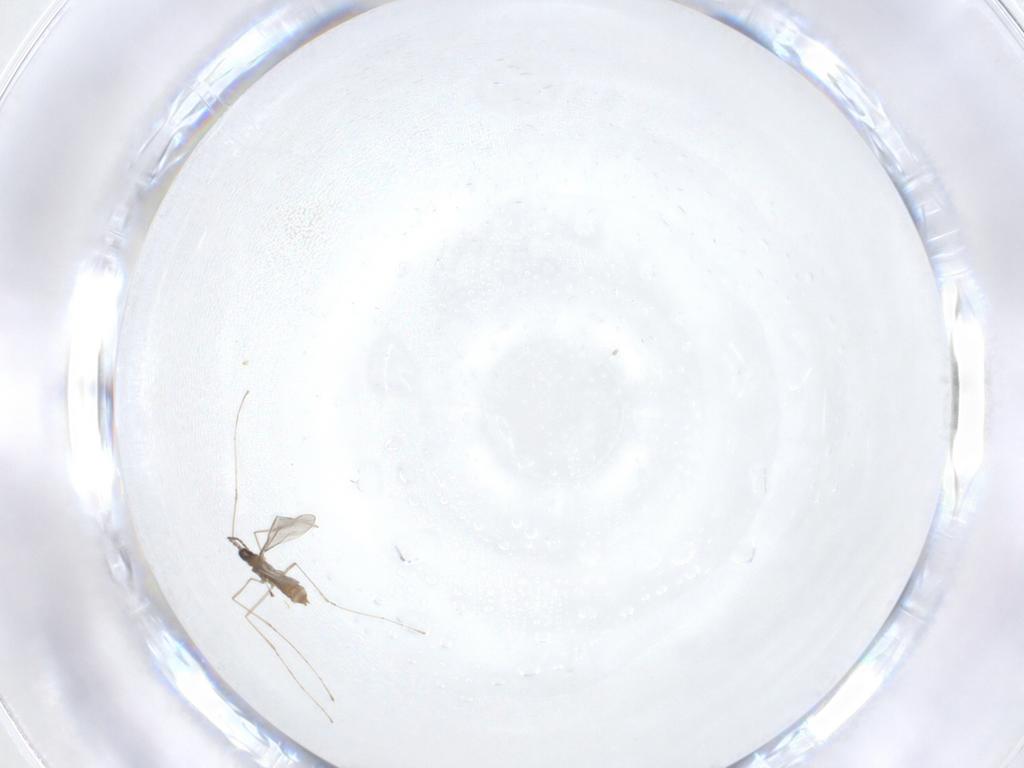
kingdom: Animalia
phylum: Arthropoda
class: Insecta
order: Diptera
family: Cecidomyiidae
